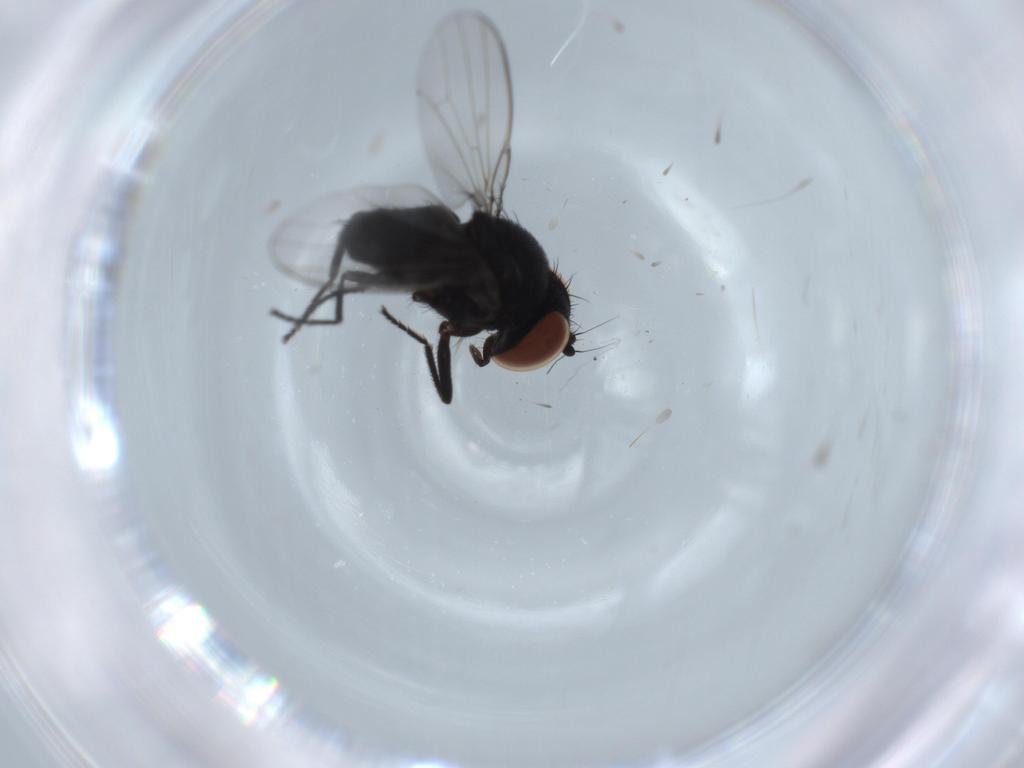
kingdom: Animalia
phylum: Arthropoda
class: Insecta
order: Diptera
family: Milichiidae
